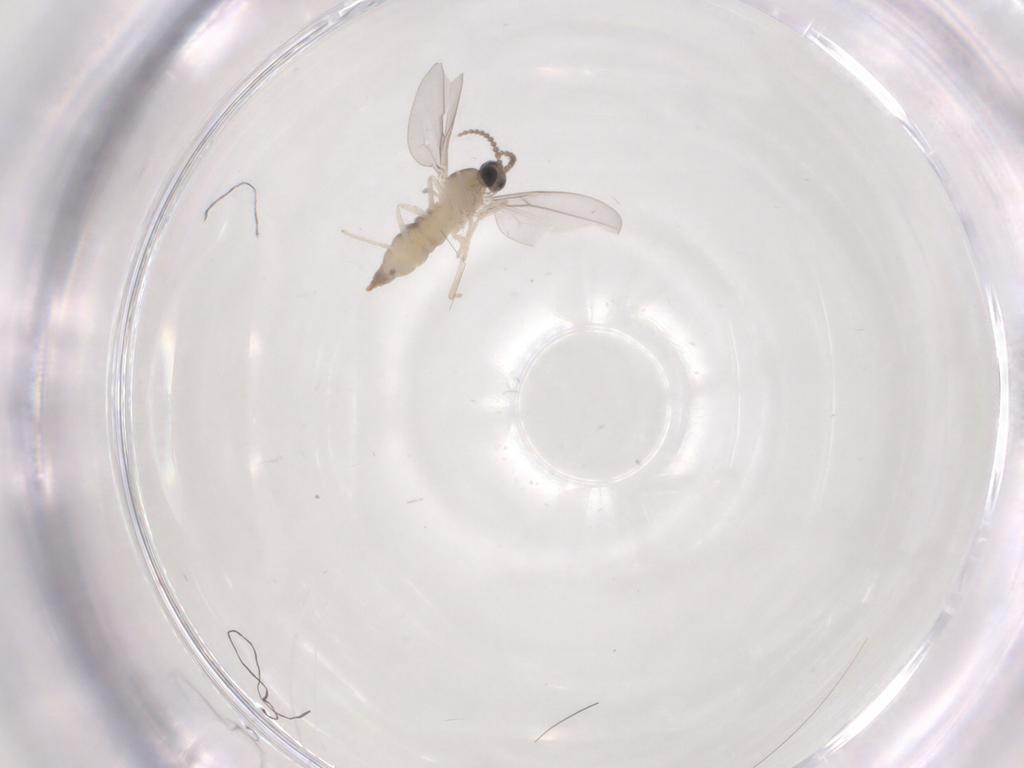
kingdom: Animalia
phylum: Arthropoda
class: Insecta
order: Diptera
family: Cecidomyiidae
